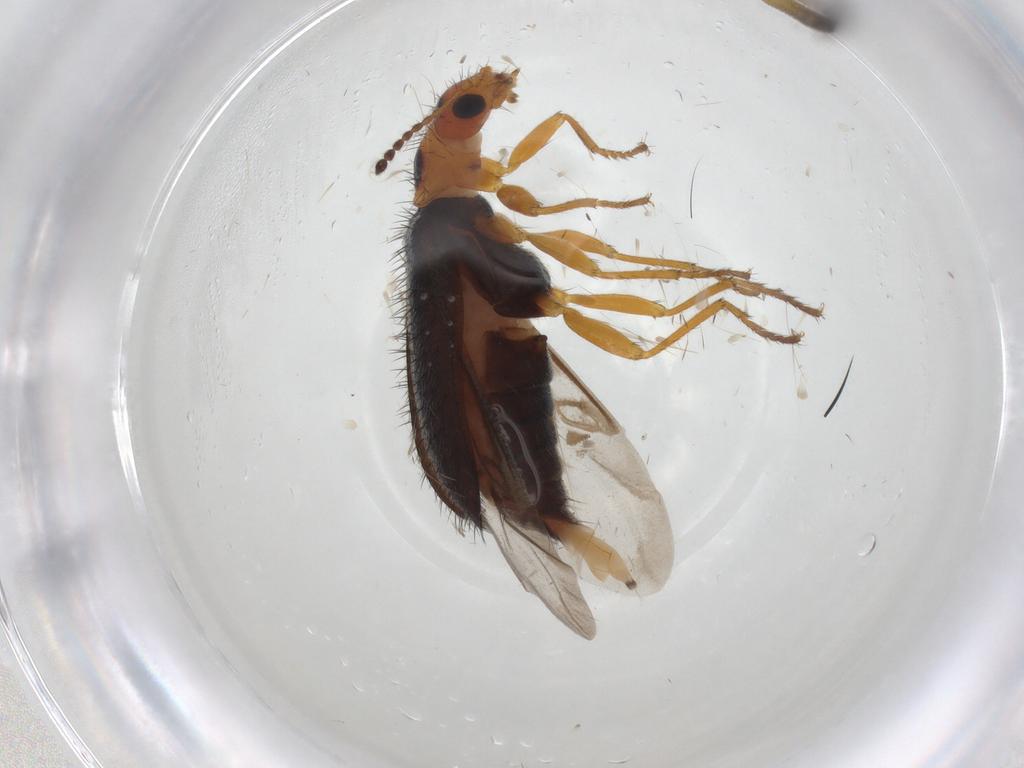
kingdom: Animalia
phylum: Arthropoda
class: Insecta
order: Coleoptera
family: Melyridae
